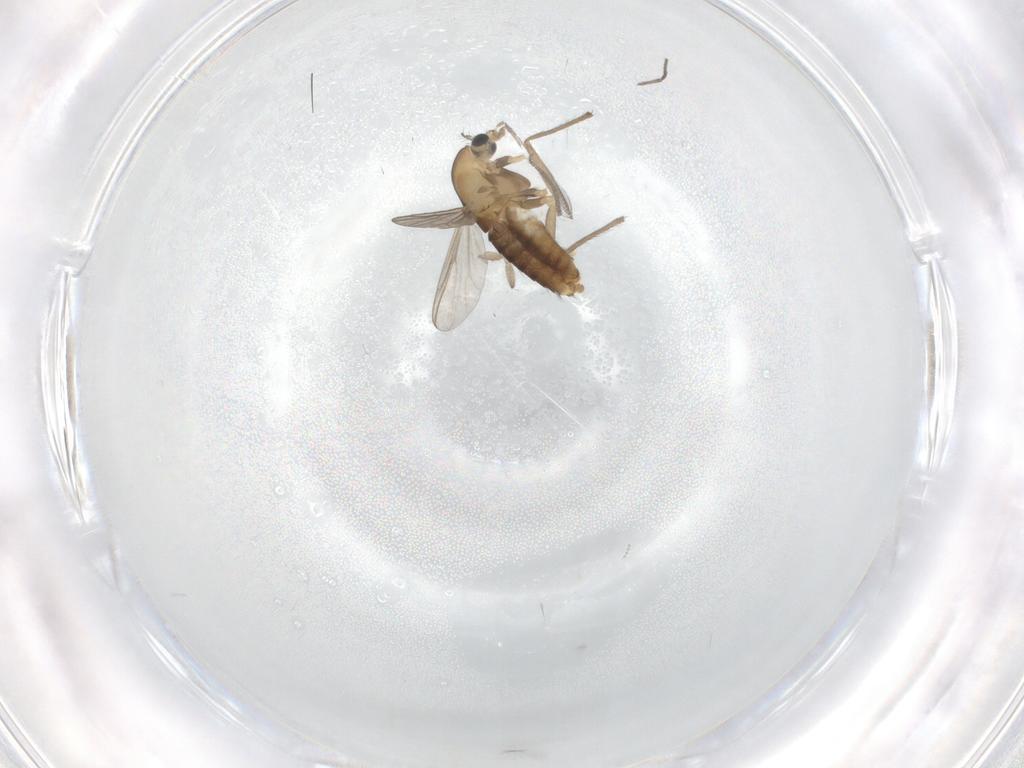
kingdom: Animalia
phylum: Arthropoda
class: Insecta
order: Diptera
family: Chironomidae
